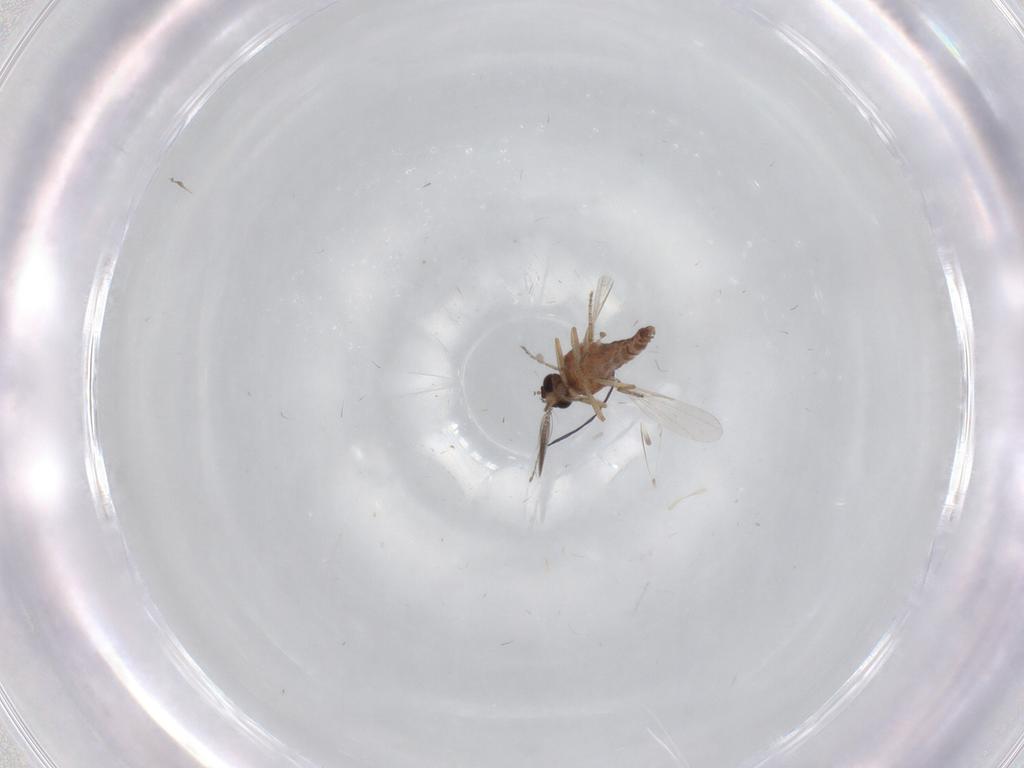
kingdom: Animalia
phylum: Arthropoda
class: Insecta
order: Diptera
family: Ceratopogonidae
